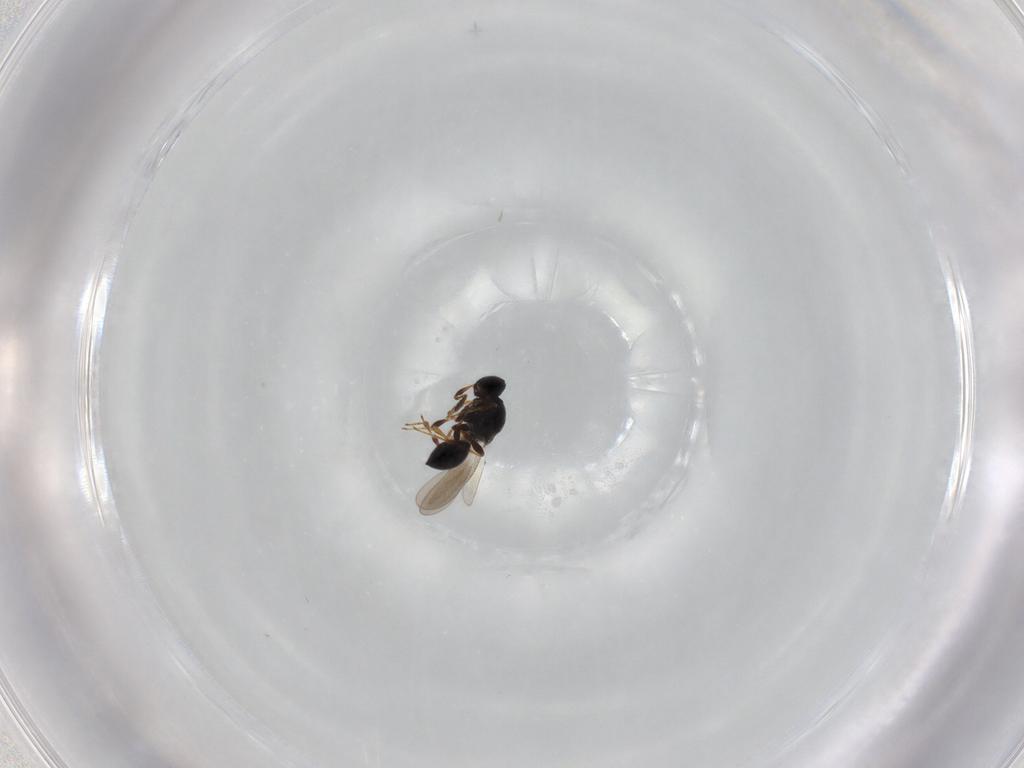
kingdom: Animalia
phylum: Arthropoda
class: Insecta
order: Hymenoptera
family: Platygastridae
